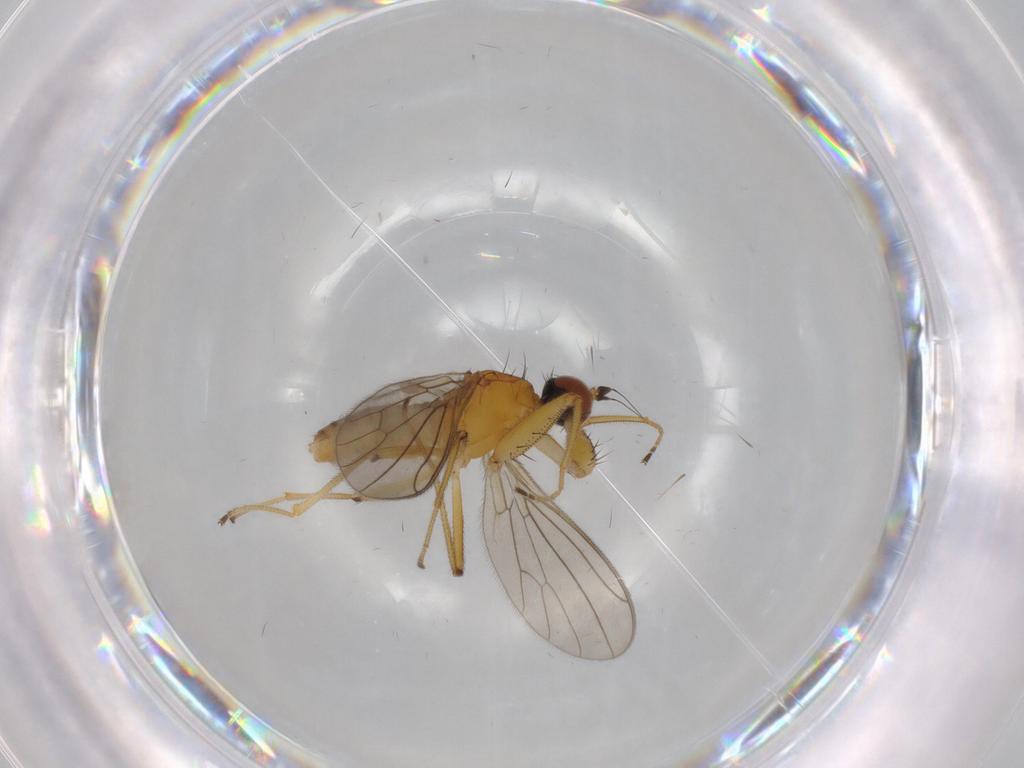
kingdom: Animalia
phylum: Arthropoda
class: Insecta
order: Diptera
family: Empididae
